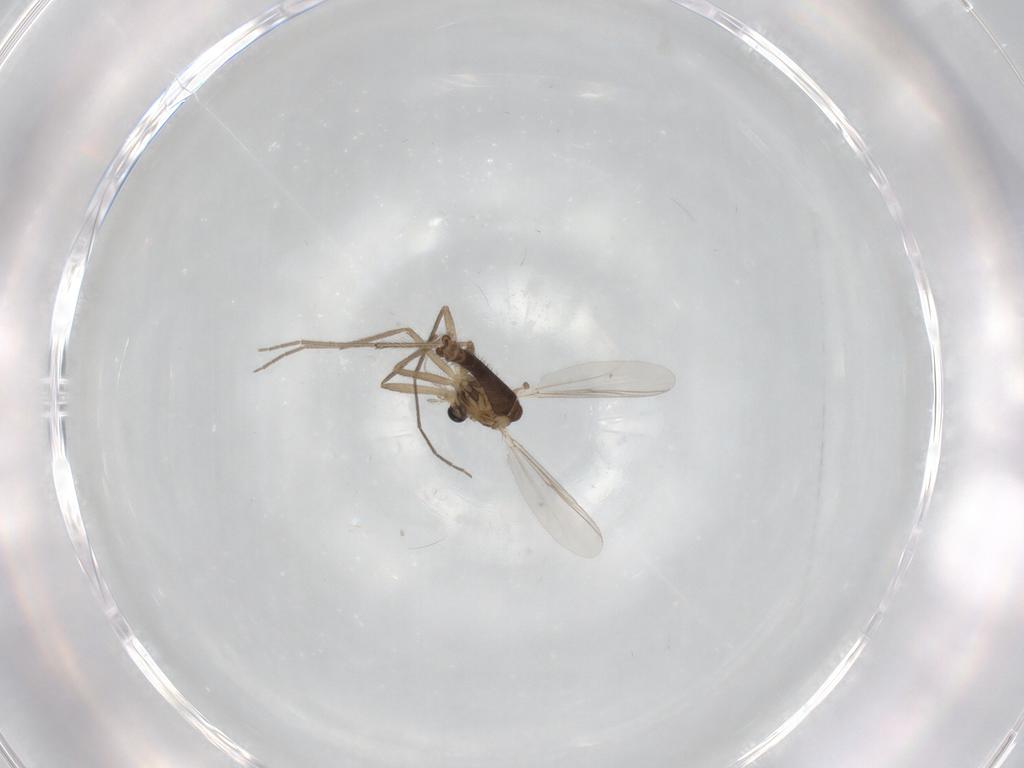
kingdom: Animalia
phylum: Arthropoda
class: Insecta
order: Diptera
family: Chironomidae
